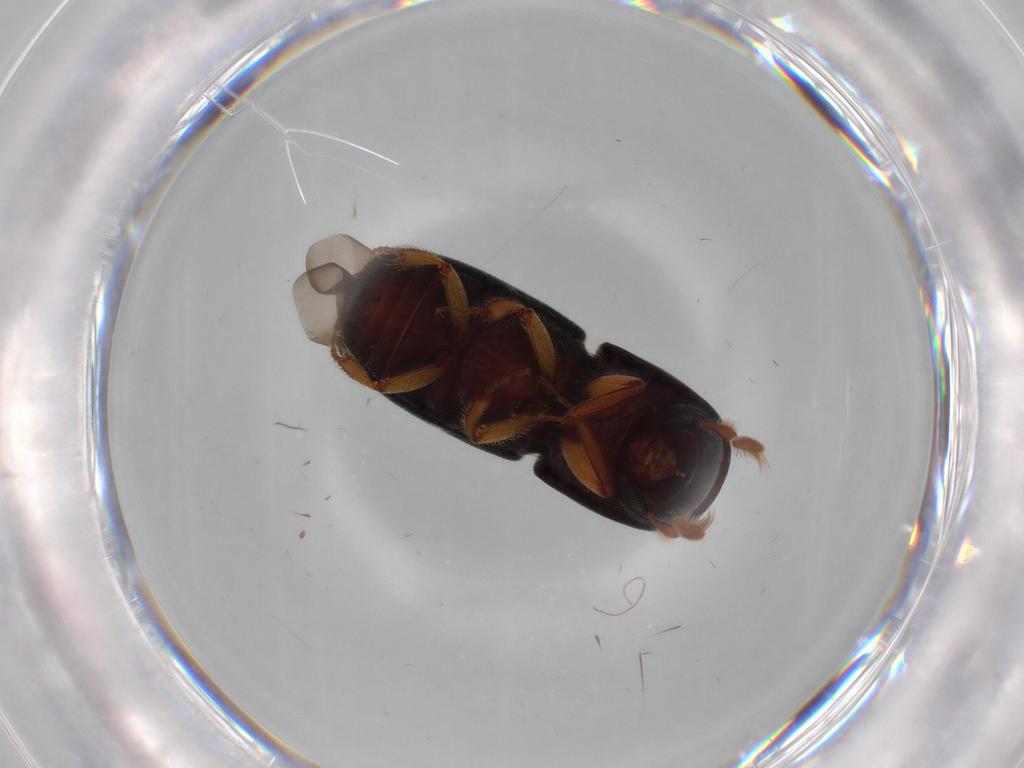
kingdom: Animalia
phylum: Arthropoda
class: Insecta
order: Coleoptera
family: Curculionidae
